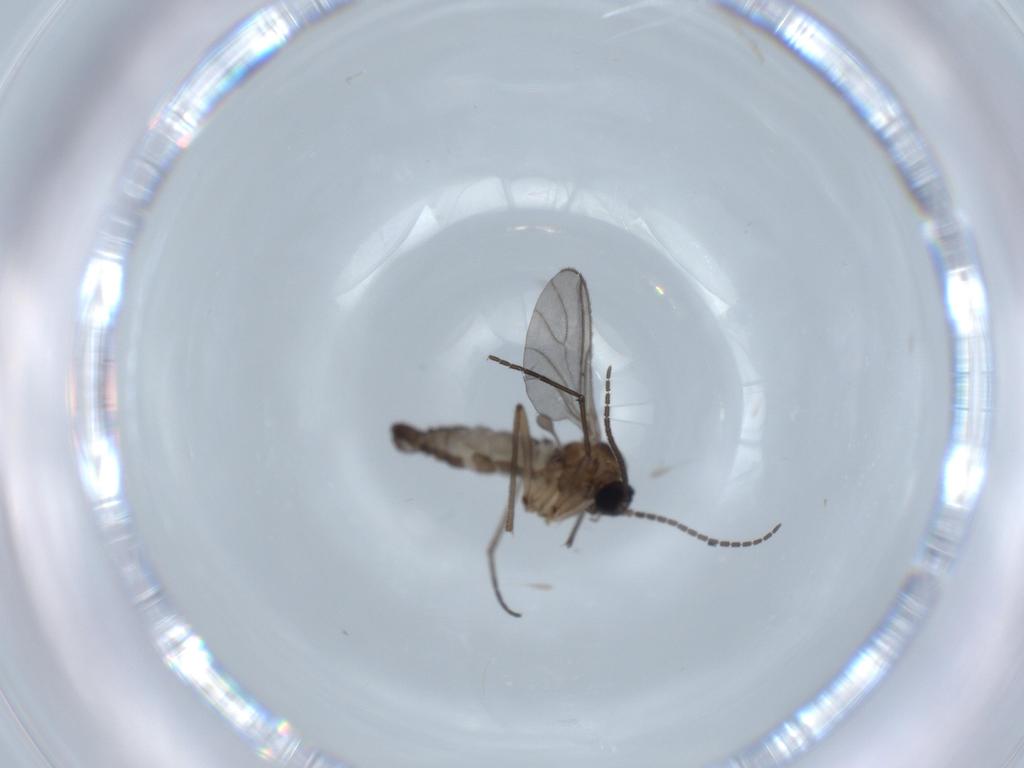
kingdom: Animalia
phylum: Arthropoda
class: Insecta
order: Diptera
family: Sciaridae
